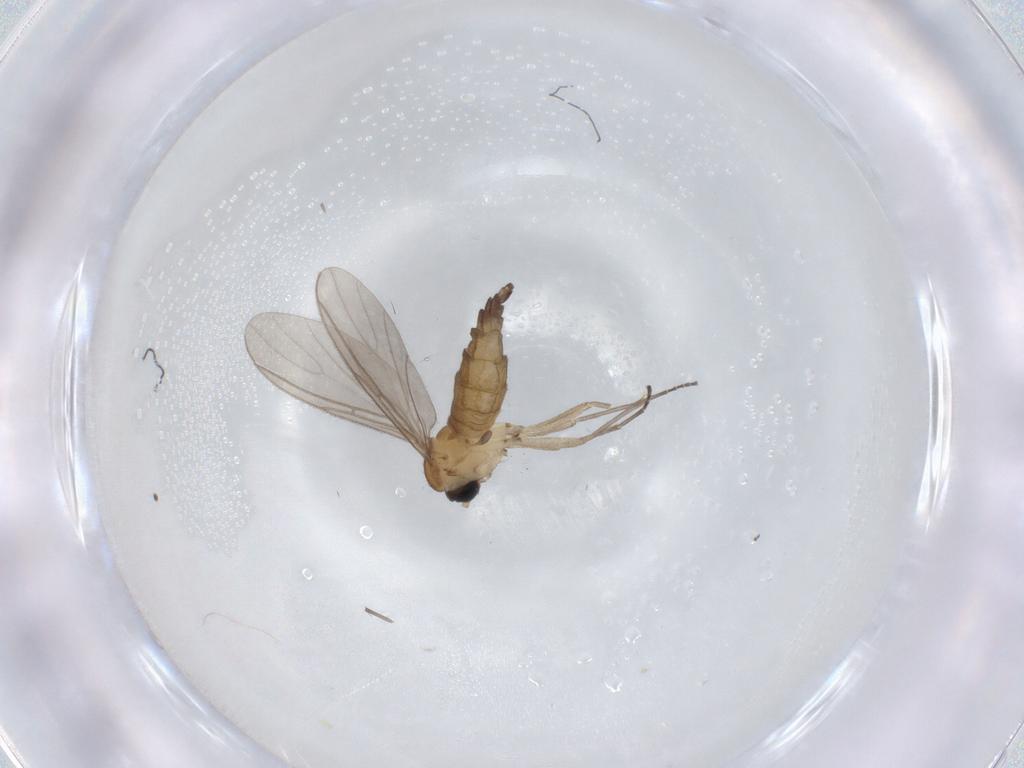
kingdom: Animalia
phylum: Arthropoda
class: Insecta
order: Diptera
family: Sciaridae
